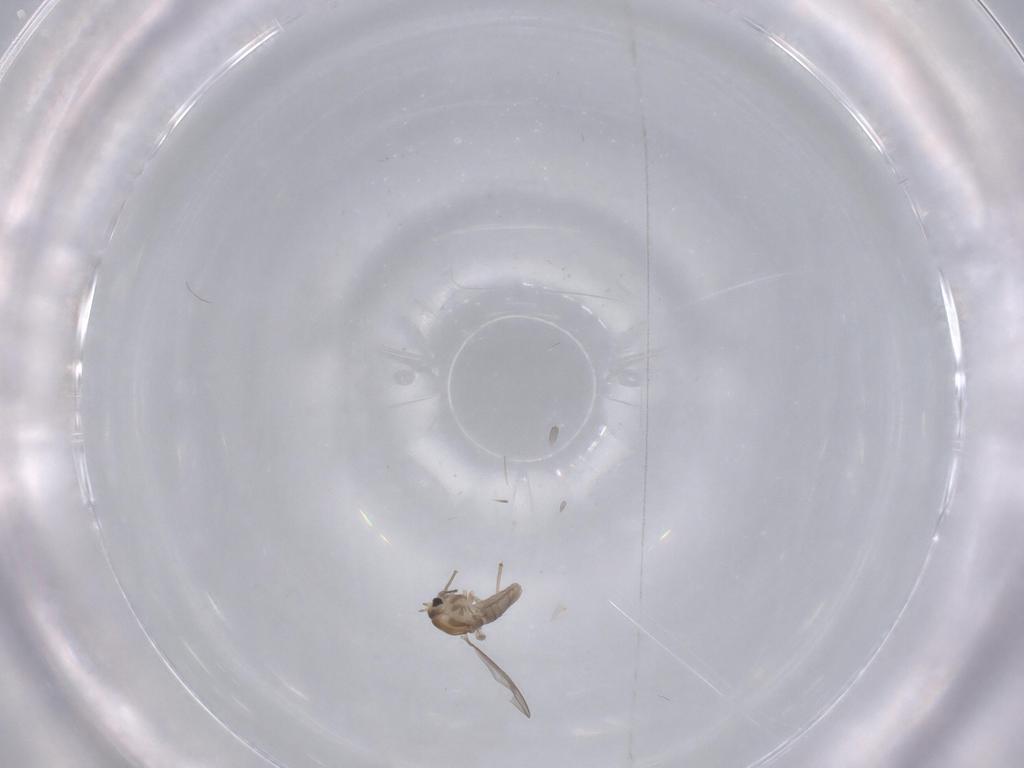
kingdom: Animalia
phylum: Arthropoda
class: Insecta
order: Diptera
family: Chironomidae
